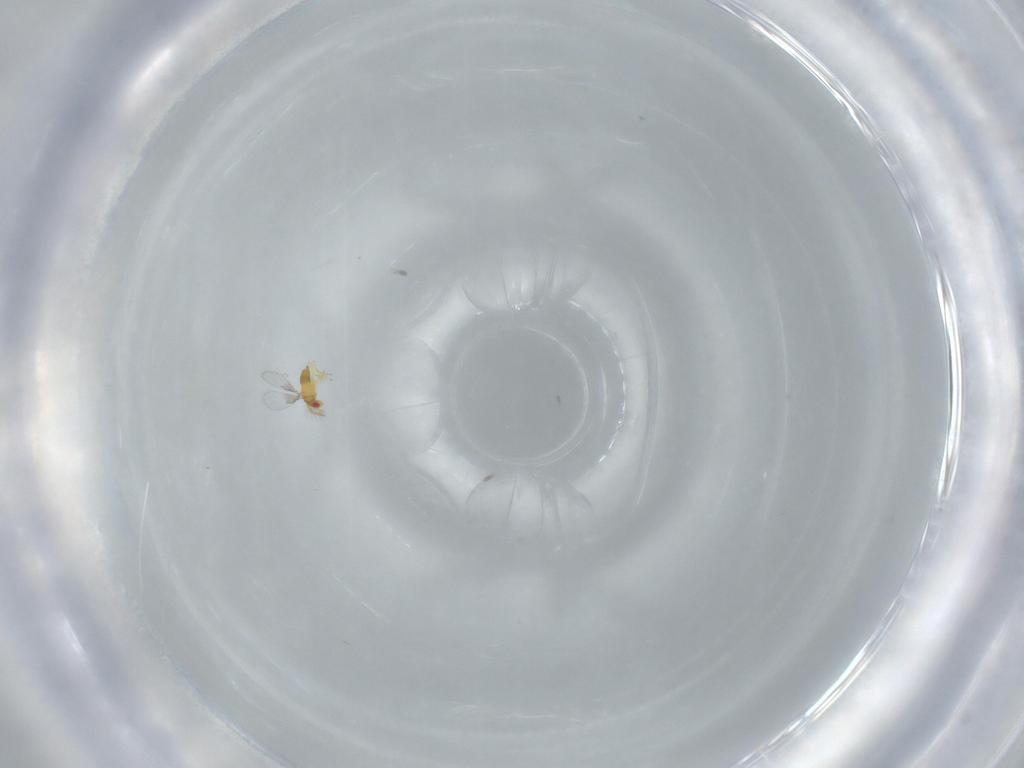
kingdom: Animalia
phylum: Arthropoda
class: Insecta
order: Hymenoptera
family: Trichogrammatidae
